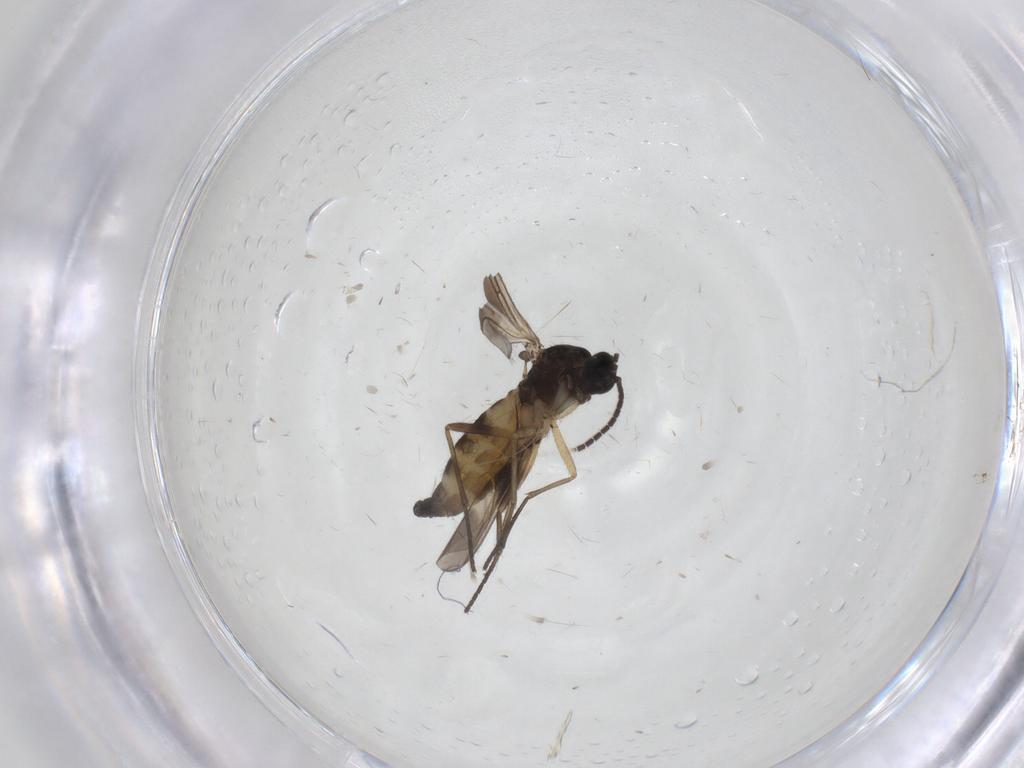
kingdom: Animalia
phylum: Arthropoda
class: Insecta
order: Diptera
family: Sciaridae
